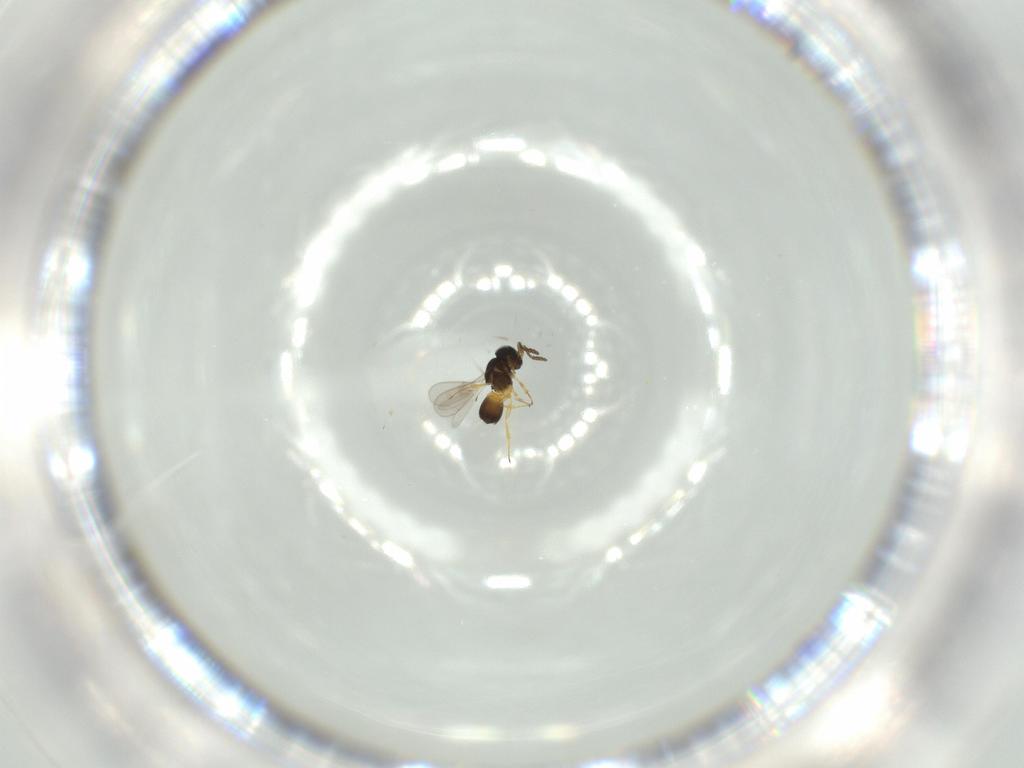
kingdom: Animalia
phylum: Arthropoda
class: Insecta
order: Hymenoptera
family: Scelionidae
